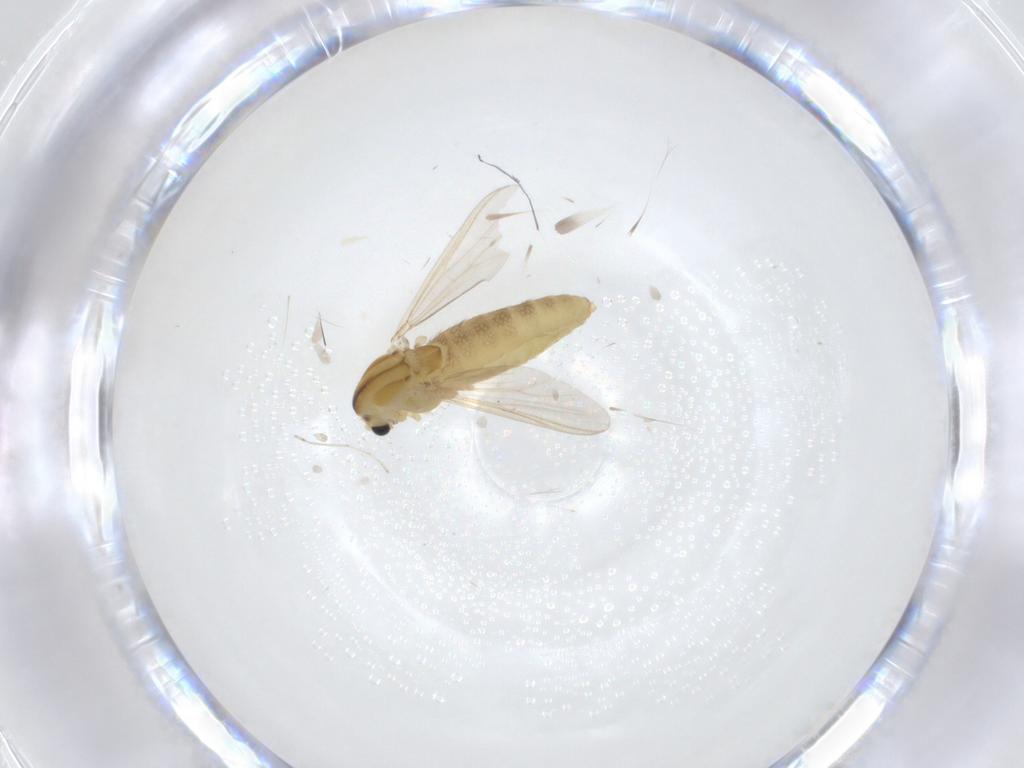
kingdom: Animalia
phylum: Arthropoda
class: Insecta
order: Diptera
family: Chironomidae
